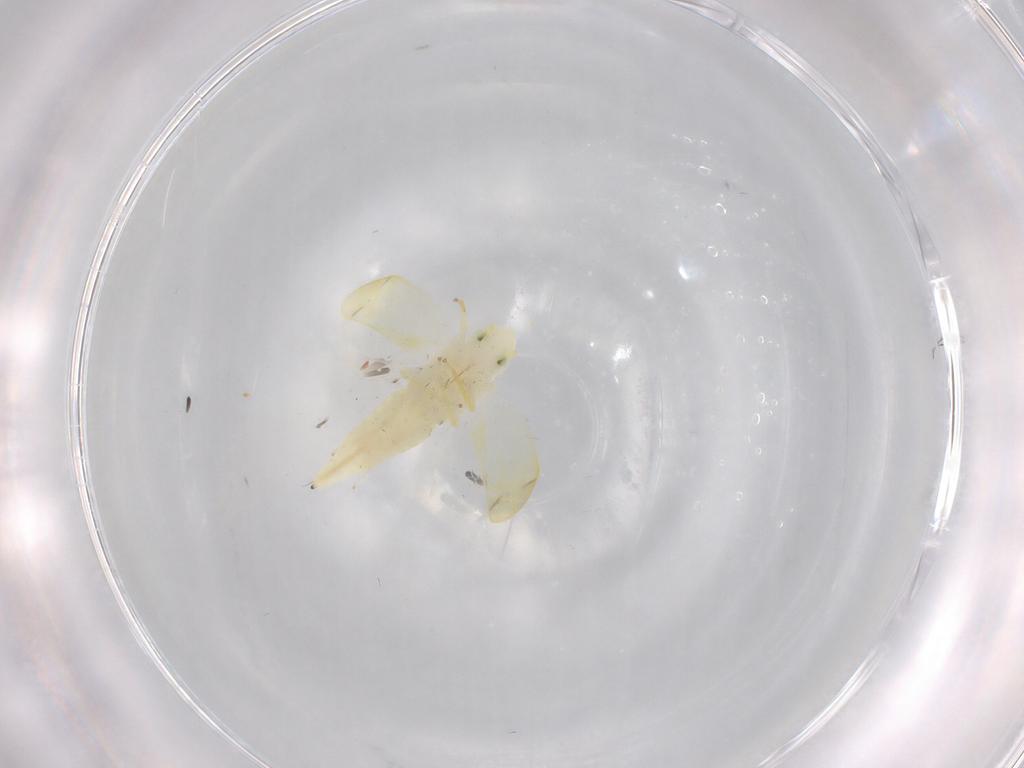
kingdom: Animalia
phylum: Arthropoda
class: Insecta
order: Hemiptera
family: Cicadellidae
